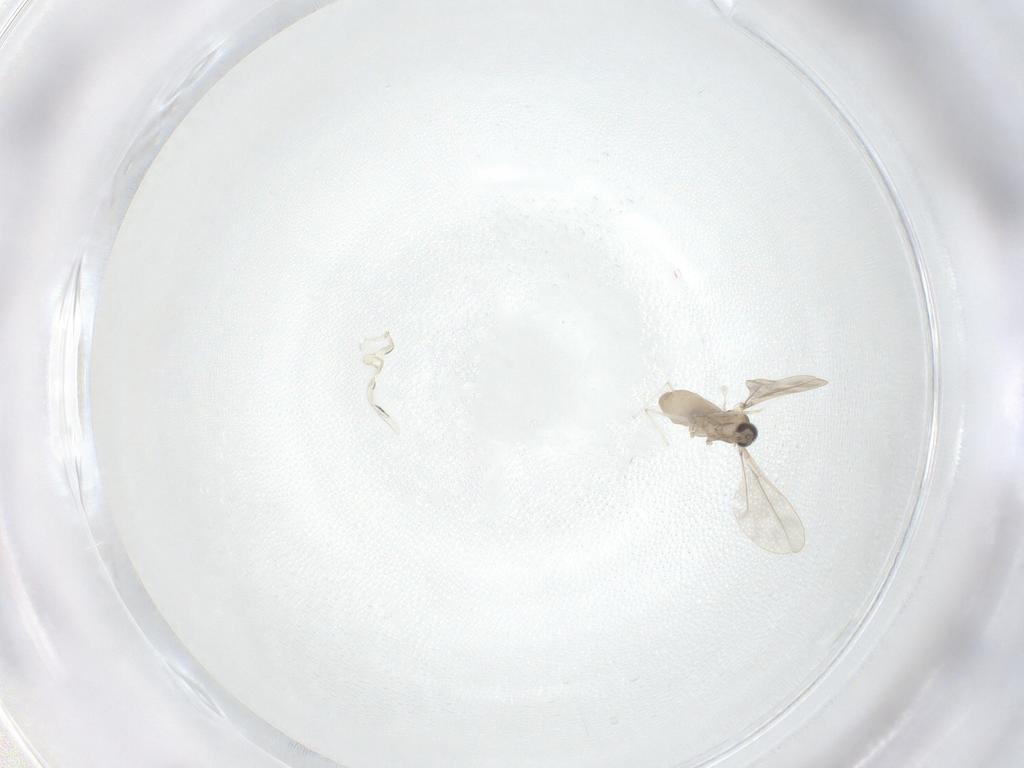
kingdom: Animalia
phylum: Arthropoda
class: Insecta
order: Diptera
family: Cecidomyiidae
